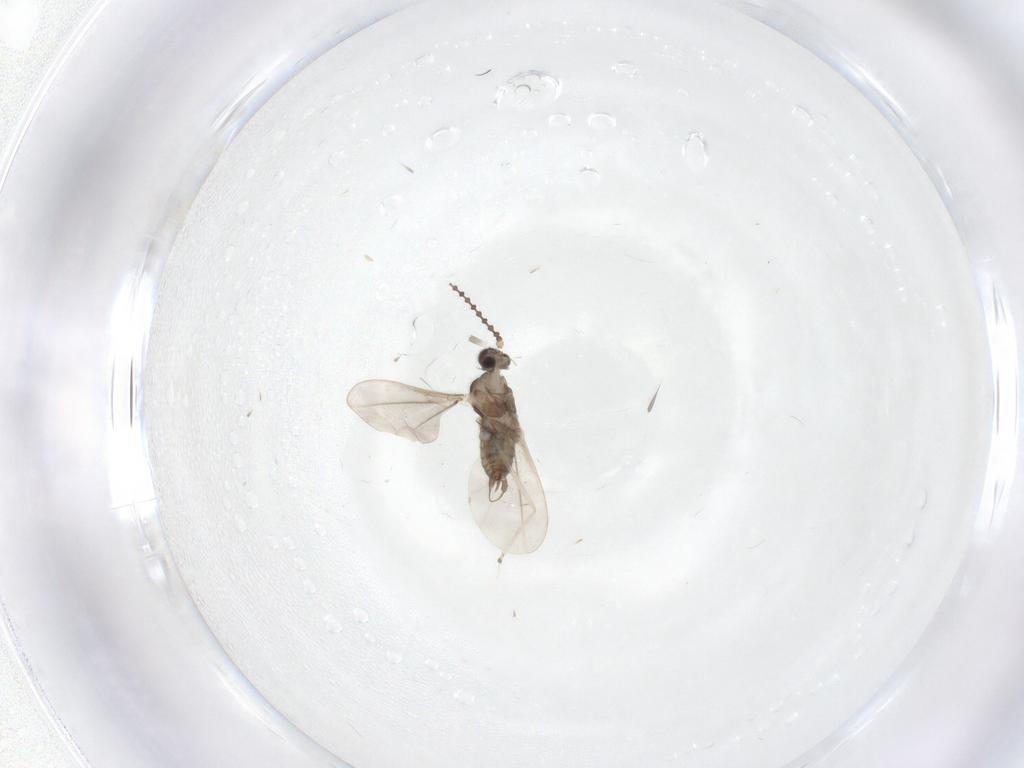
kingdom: Animalia
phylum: Arthropoda
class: Insecta
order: Diptera
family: Cecidomyiidae
